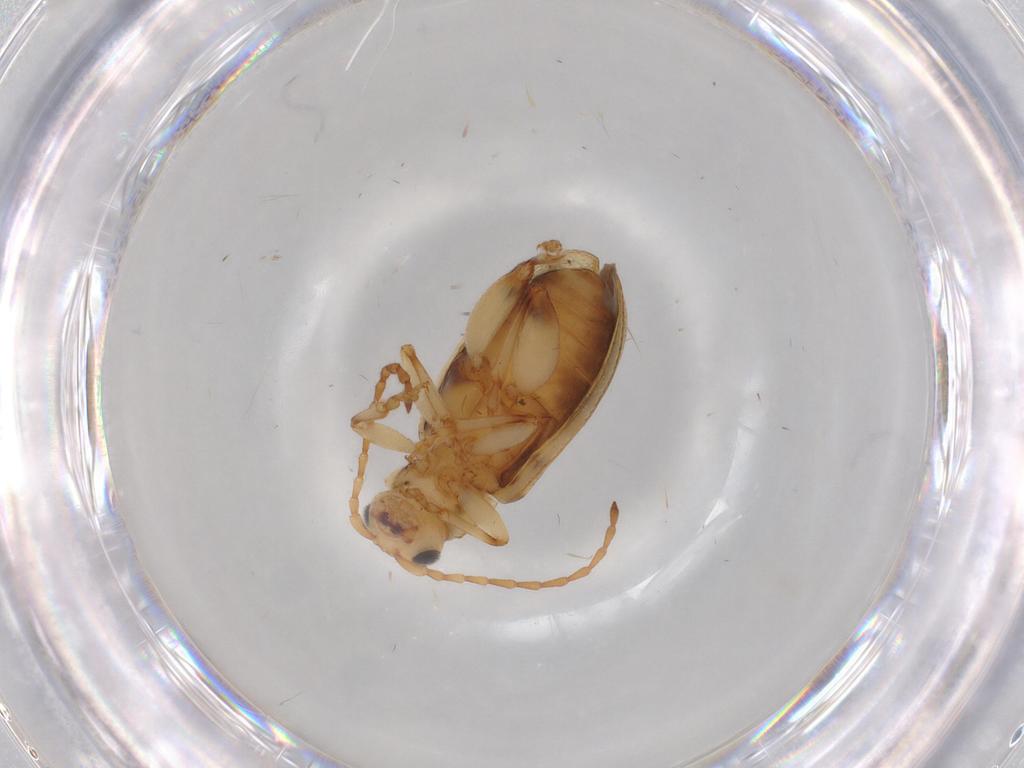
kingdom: Animalia
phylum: Arthropoda
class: Insecta
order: Coleoptera
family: Chrysomelidae
